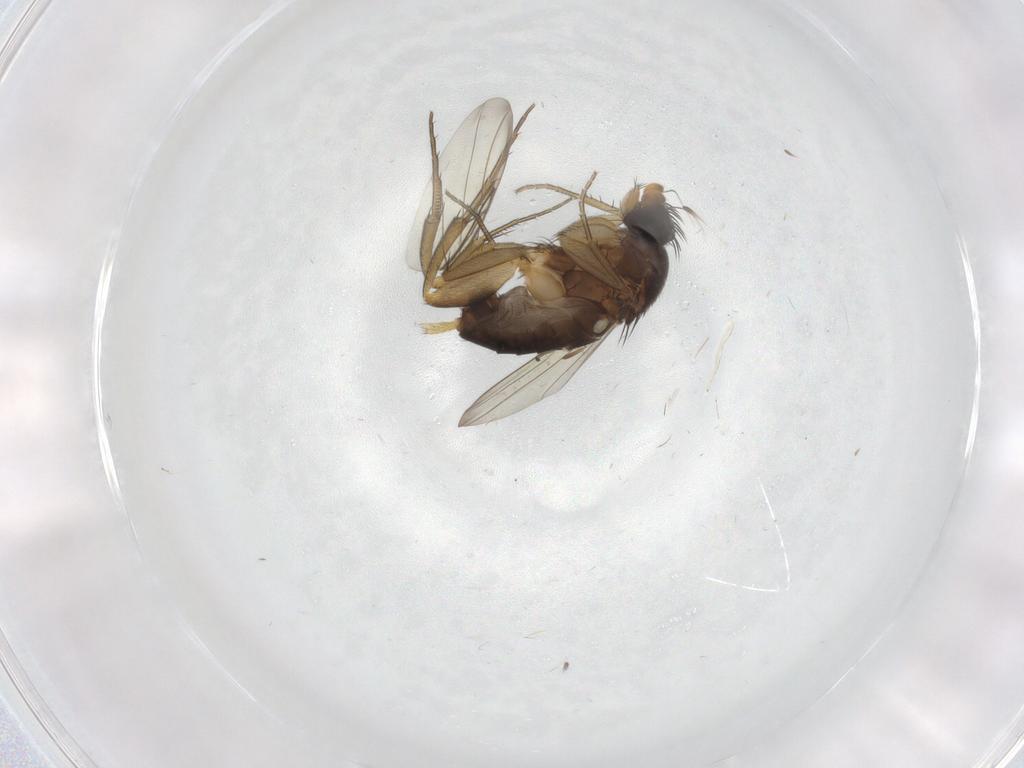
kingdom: Animalia
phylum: Arthropoda
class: Insecta
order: Diptera
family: Phoridae
